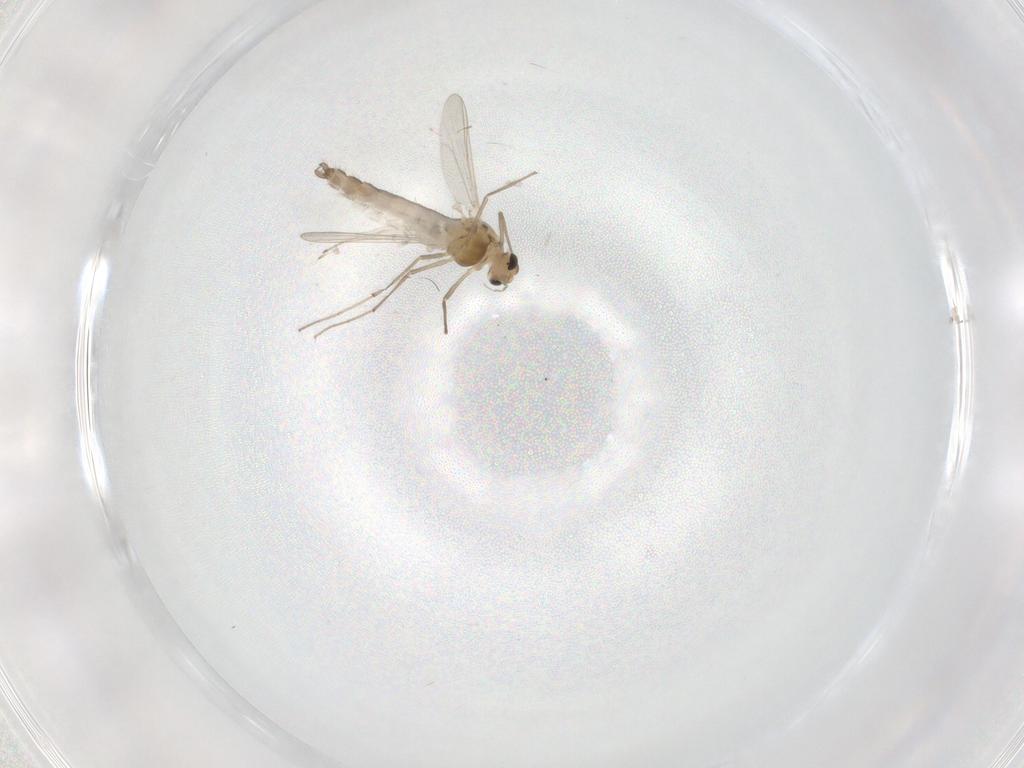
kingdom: Animalia
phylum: Arthropoda
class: Insecta
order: Diptera
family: Chironomidae
